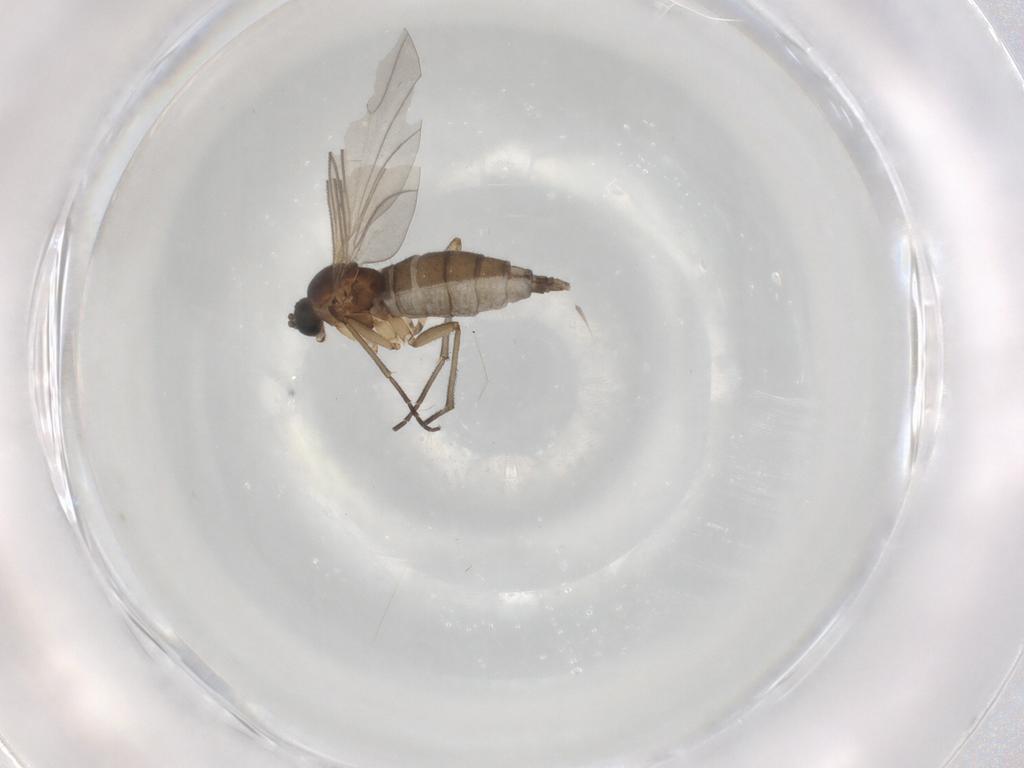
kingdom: Animalia
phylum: Arthropoda
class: Insecta
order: Diptera
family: Sciaridae
